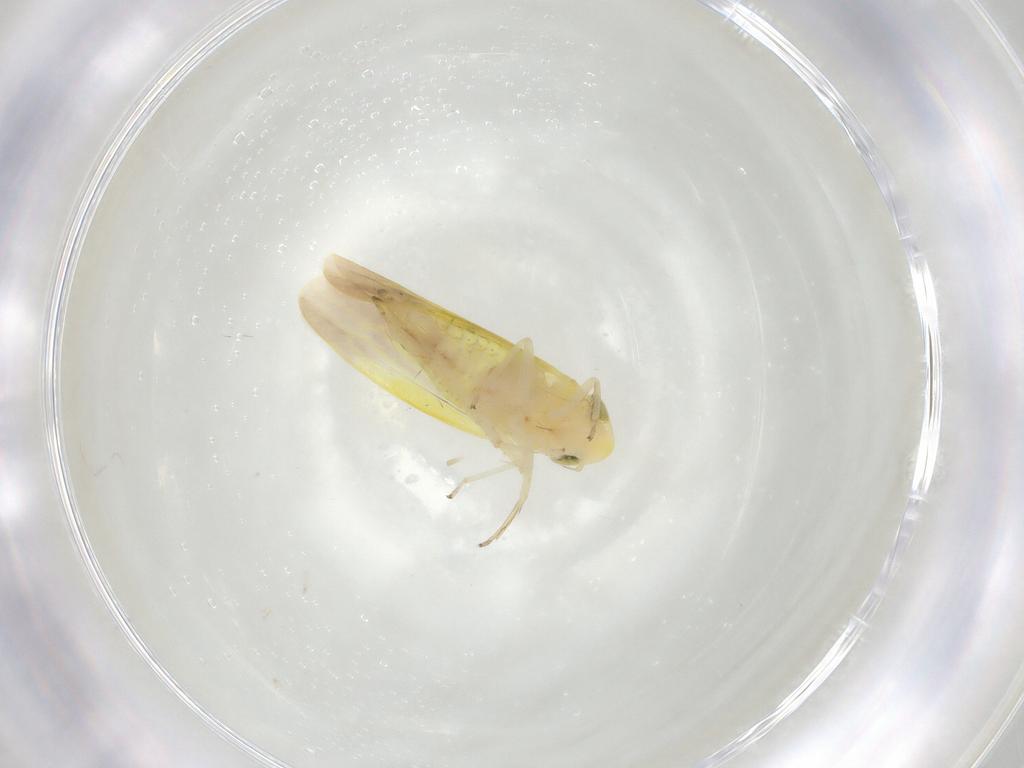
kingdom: Animalia
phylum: Arthropoda
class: Insecta
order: Hemiptera
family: Cicadellidae
